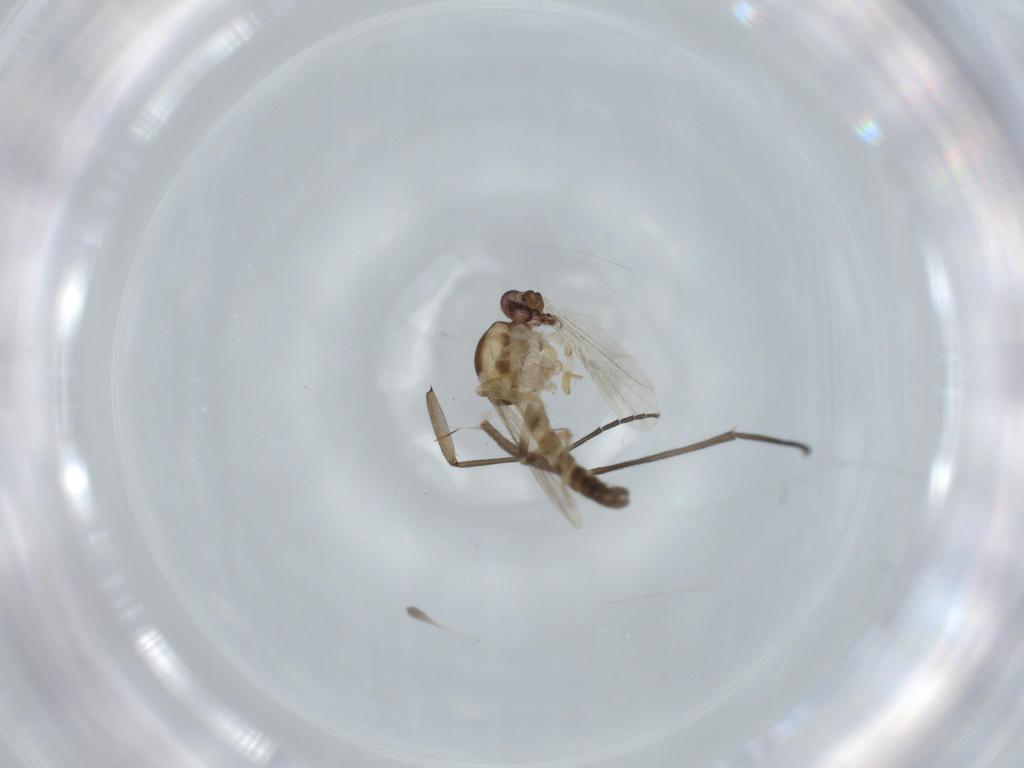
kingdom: Animalia
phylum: Arthropoda
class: Insecta
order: Diptera
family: Ceratopogonidae
